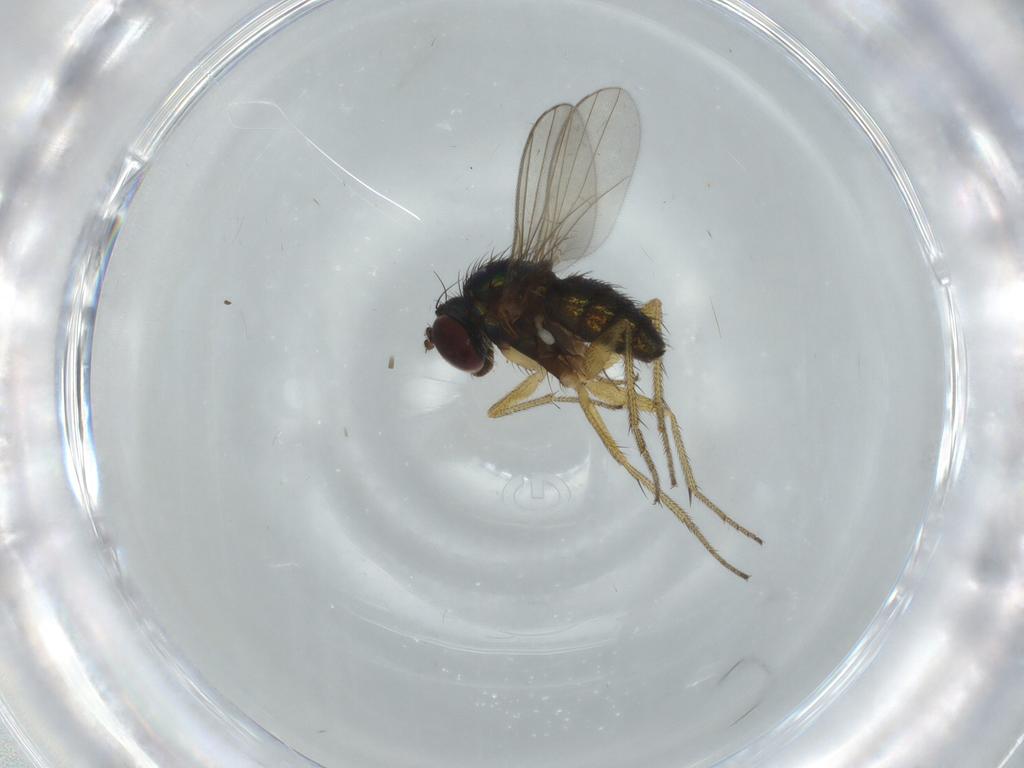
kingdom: Animalia
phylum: Arthropoda
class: Insecta
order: Diptera
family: Dolichopodidae
